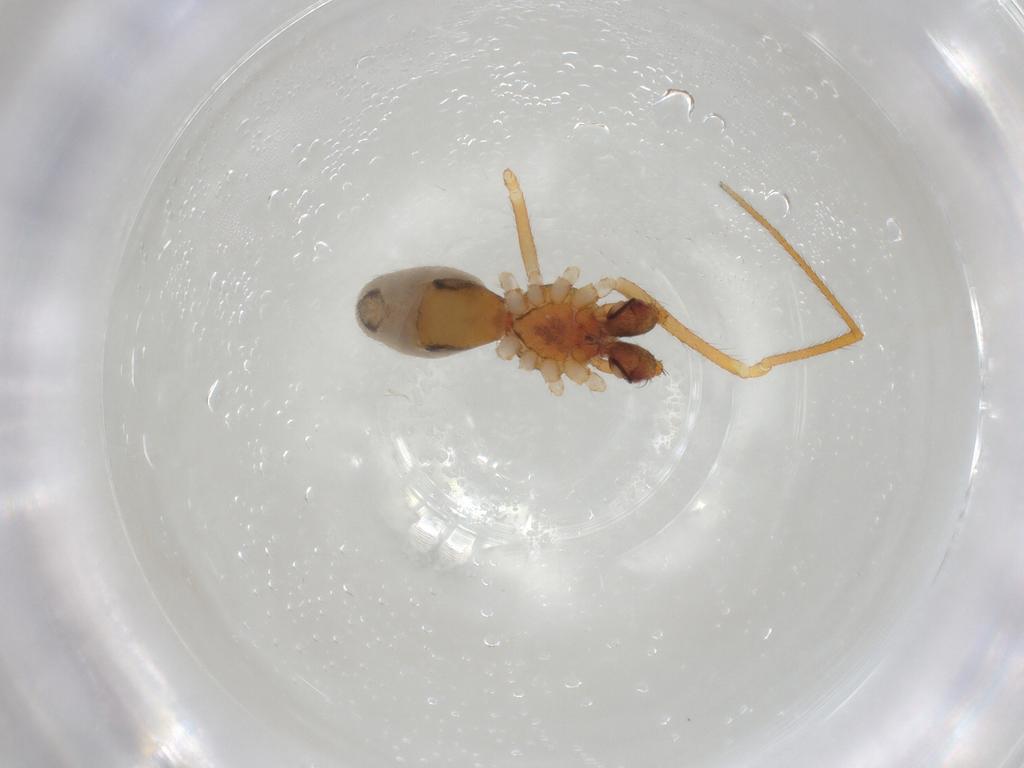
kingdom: Animalia
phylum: Arthropoda
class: Arachnida
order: Araneae
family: Theridiidae
